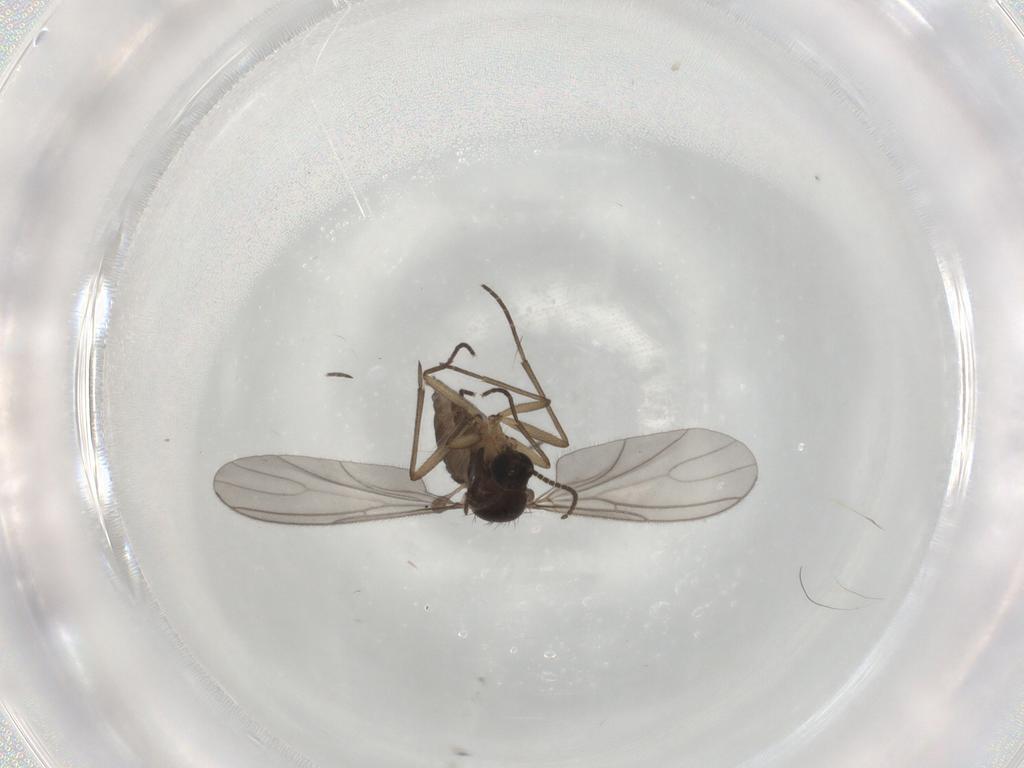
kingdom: Animalia
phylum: Arthropoda
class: Insecta
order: Diptera
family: Sciaridae
